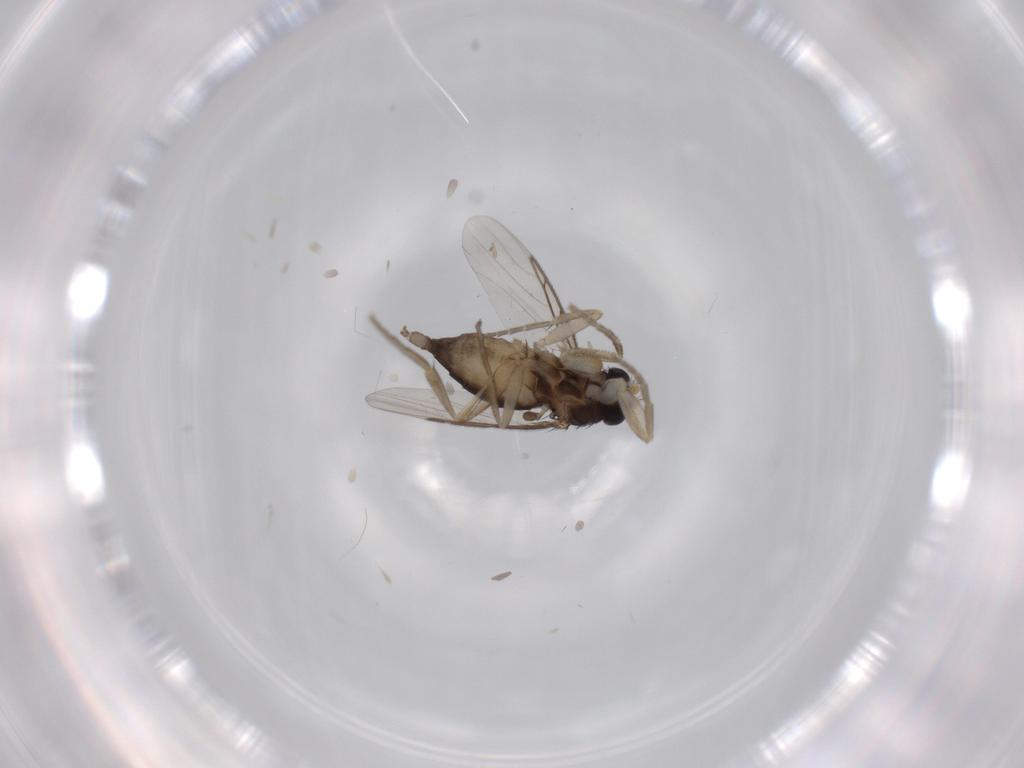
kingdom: Animalia
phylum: Arthropoda
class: Insecta
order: Diptera
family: Phoridae
